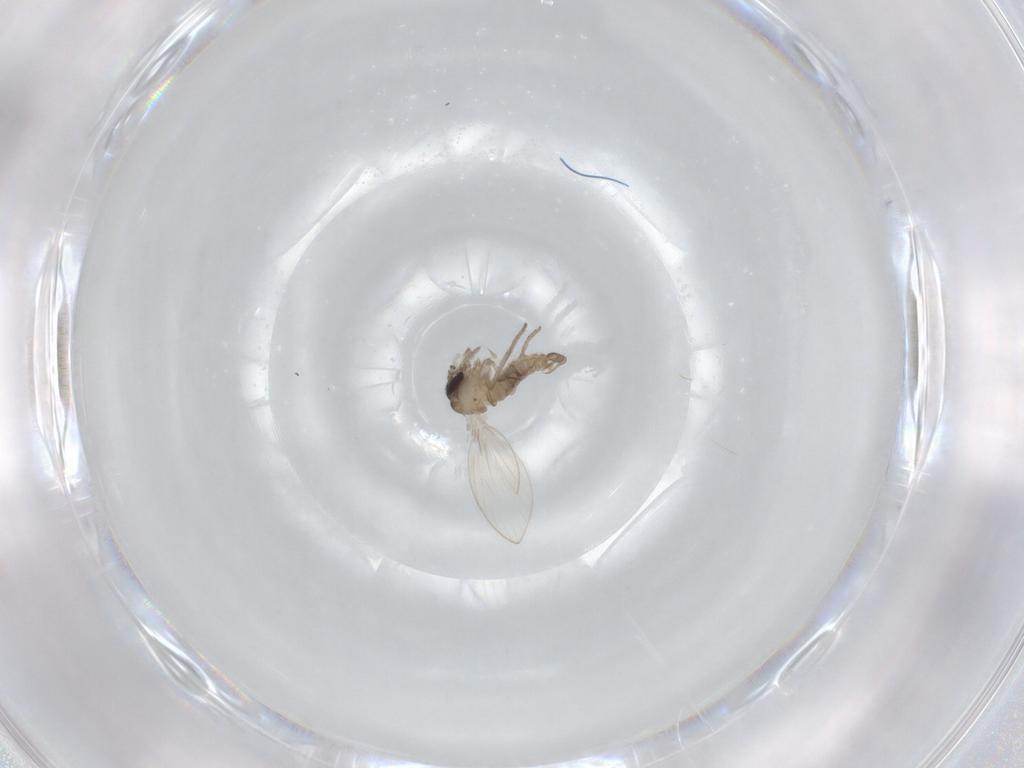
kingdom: Animalia
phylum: Arthropoda
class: Insecta
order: Diptera
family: Psychodidae
